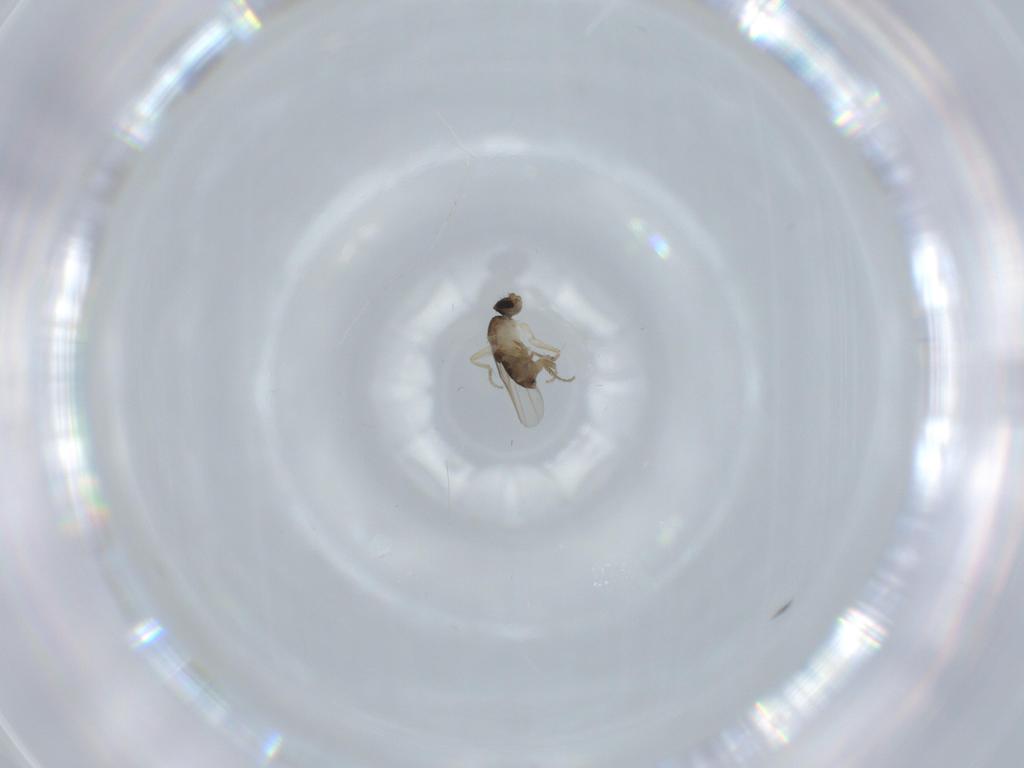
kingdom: Animalia
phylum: Arthropoda
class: Insecta
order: Diptera
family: Phoridae
